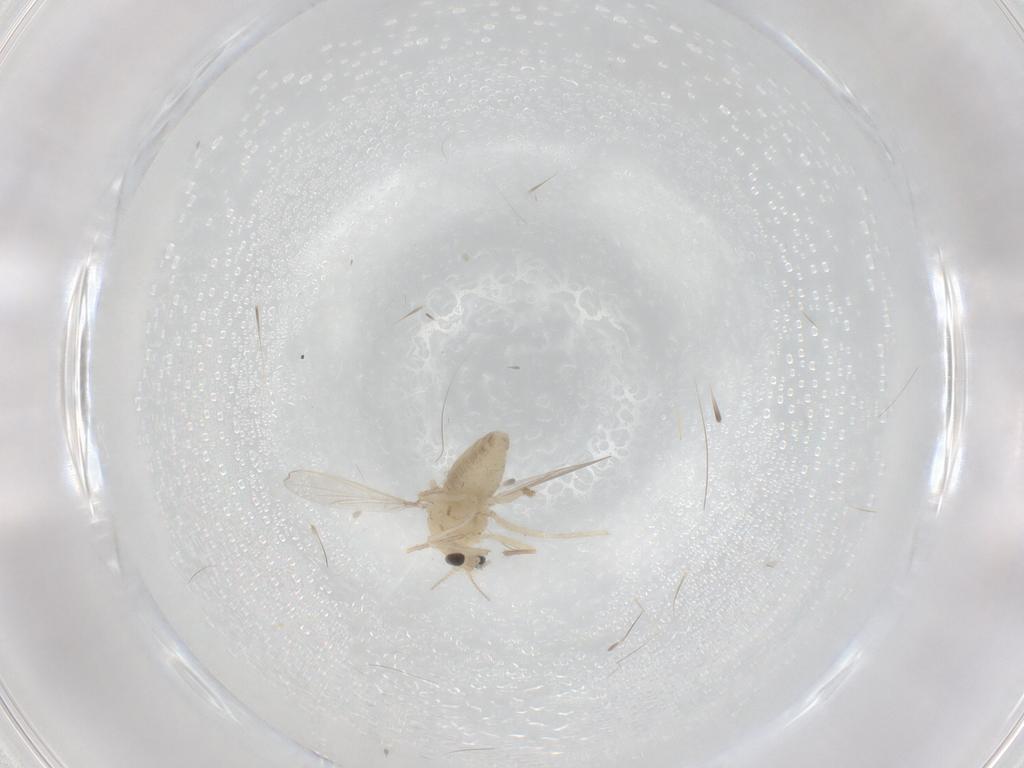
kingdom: Animalia
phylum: Arthropoda
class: Insecta
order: Diptera
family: Chironomidae
